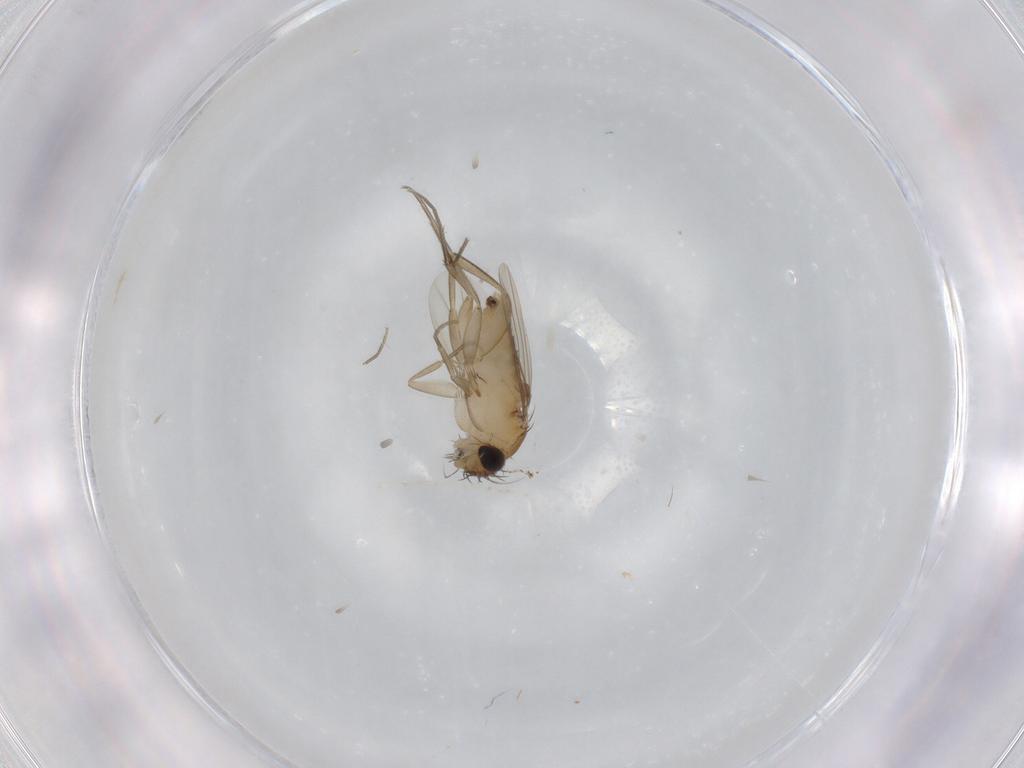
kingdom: Animalia
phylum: Arthropoda
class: Insecta
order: Diptera
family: Phoridae
